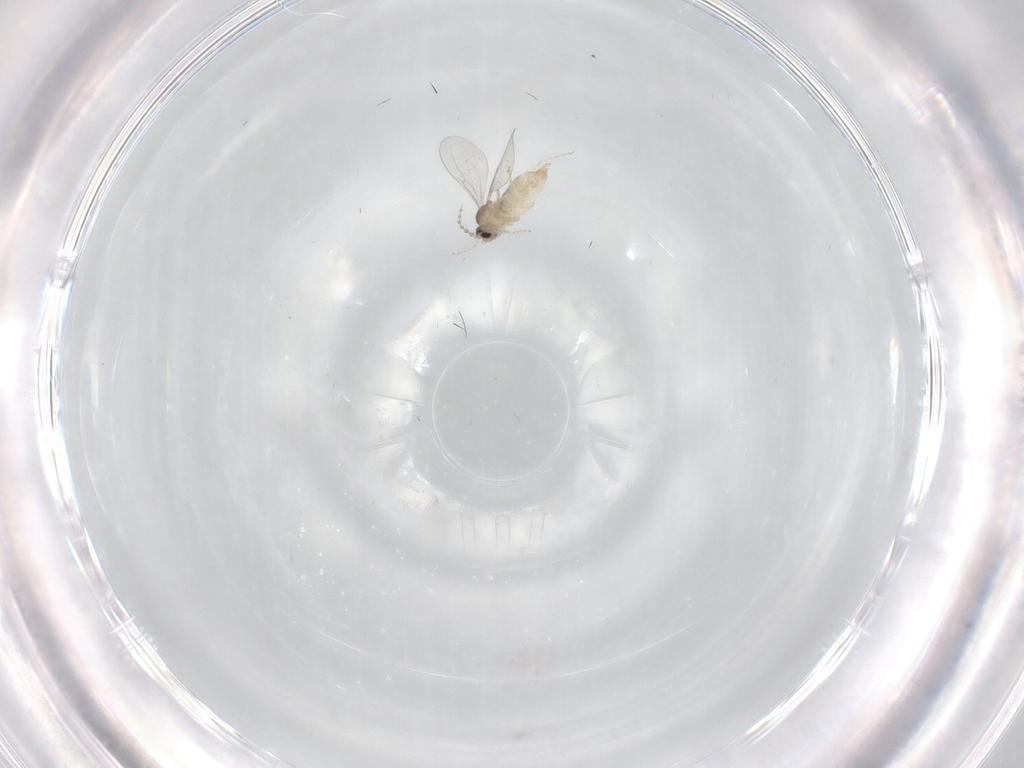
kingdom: Animalia
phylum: Arthropoda
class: Insecta
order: Diptera
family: Cecidomyiidae
